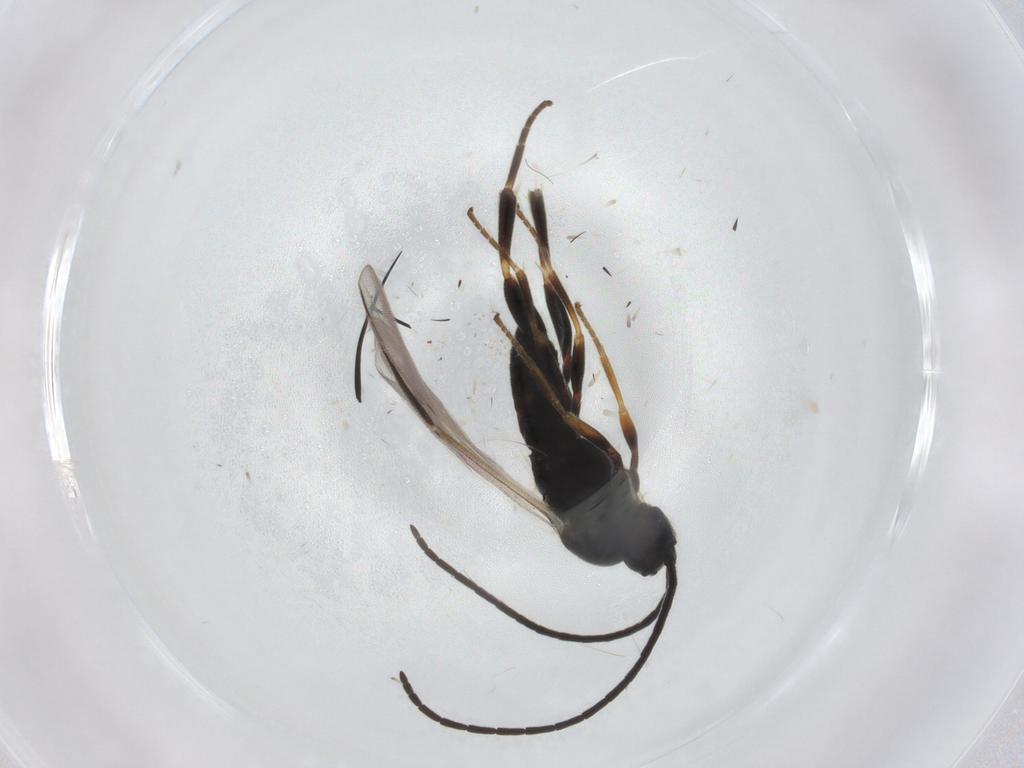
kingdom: Animalia
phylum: Arthropoda
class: Insecta
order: Hymenoptera
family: Braconidae
